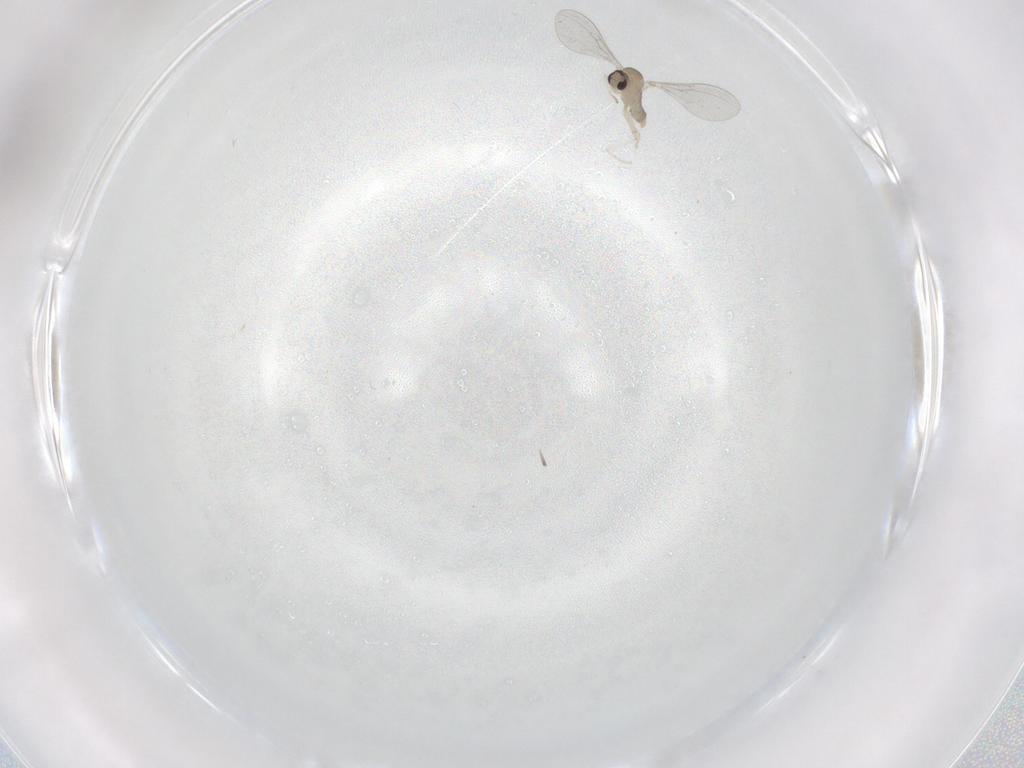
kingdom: Animalia
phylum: Arthropoda
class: Insecta
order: Diptera
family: Cecidomyiidae
